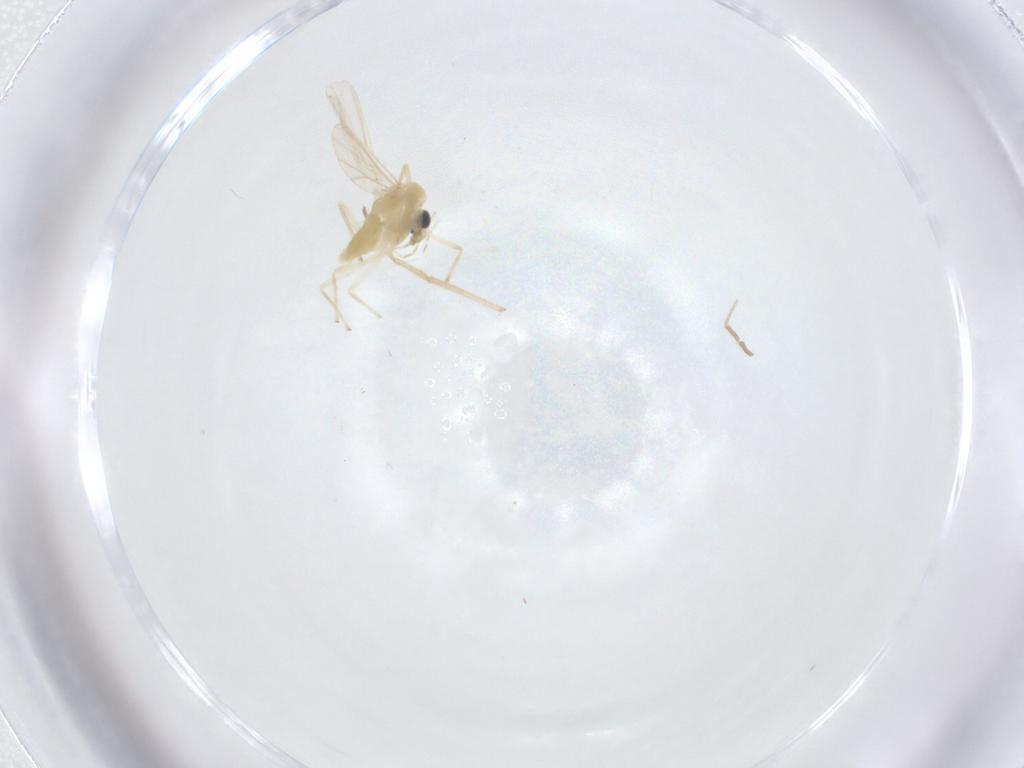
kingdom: Animalia
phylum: Arthropoda
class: Insecta
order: Diptera
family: Chironomidae
